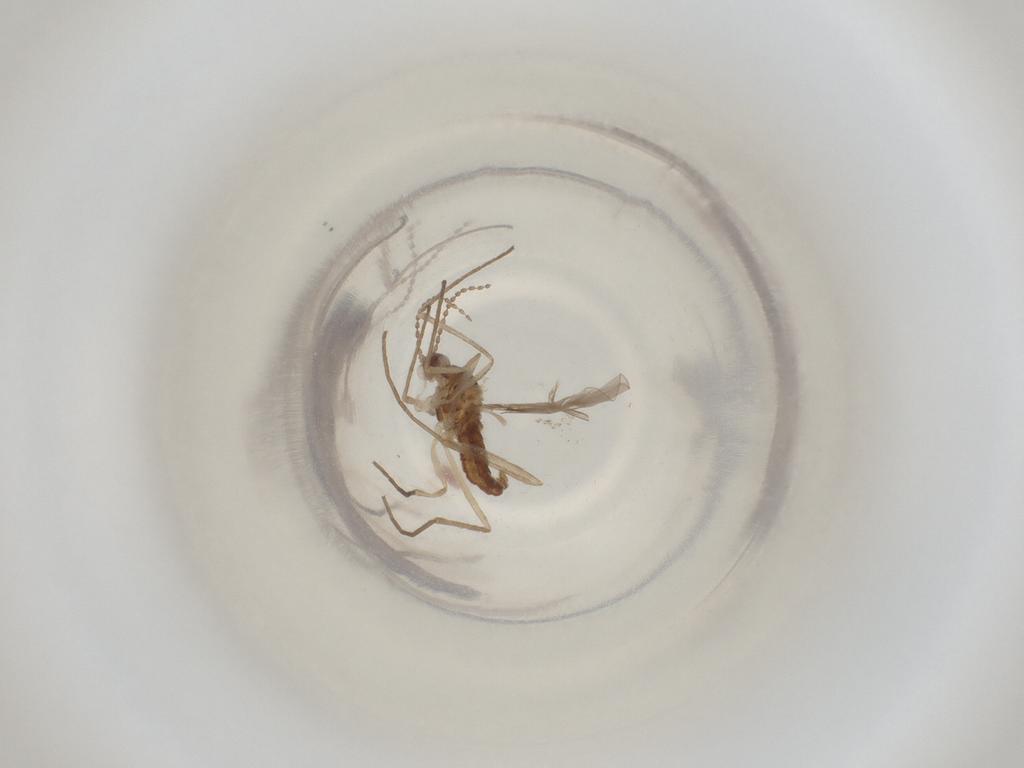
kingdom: Animalia
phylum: Arthropoda
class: Insecta
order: Diptera
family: Cecidomyiidae
